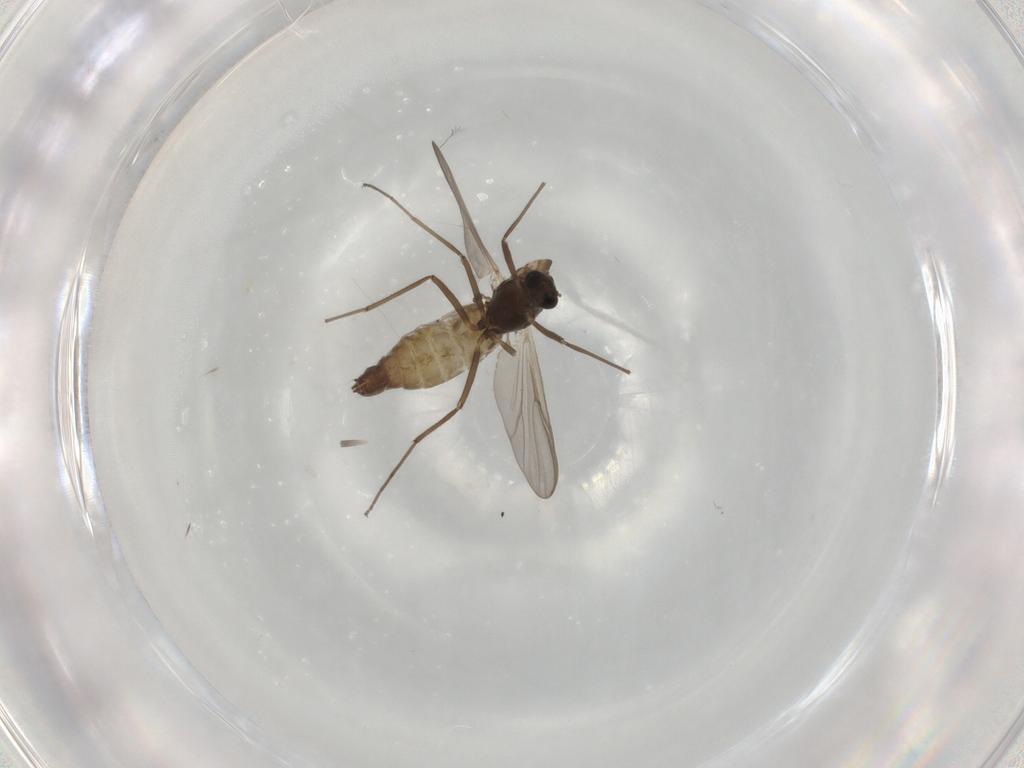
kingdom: Animalia
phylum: Arthropoda
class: Insecta
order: Diptera
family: Chironomidae
